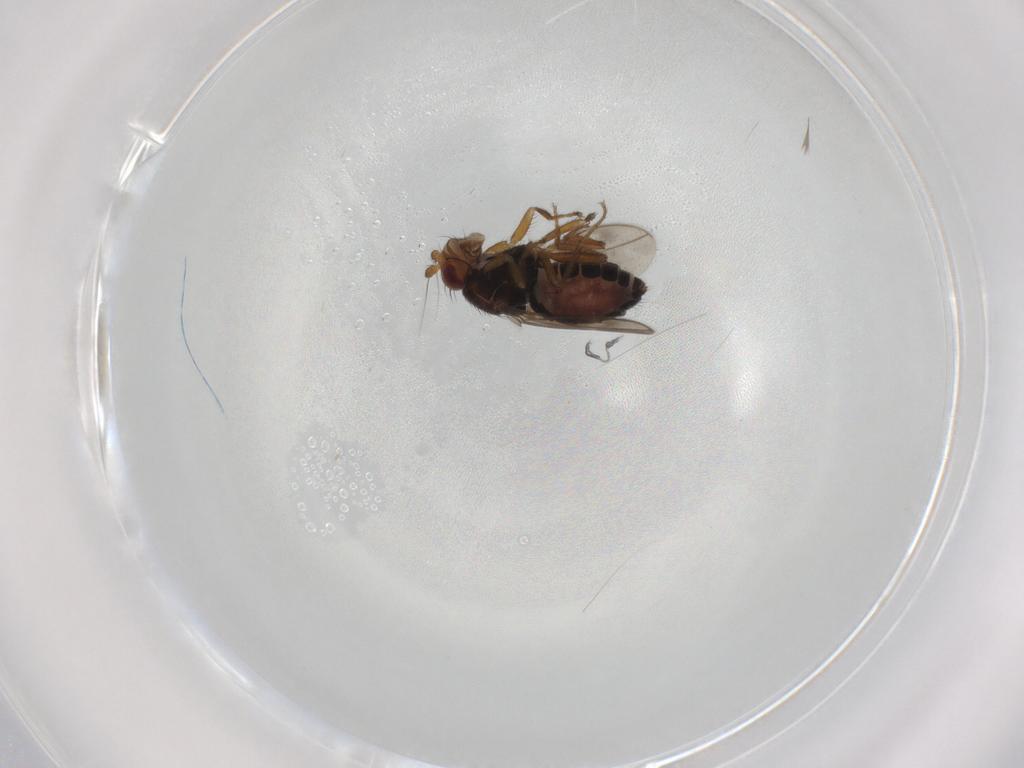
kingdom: Animalia
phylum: Arthropoda
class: Insecta
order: Diptera
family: Sphaeroceridae
